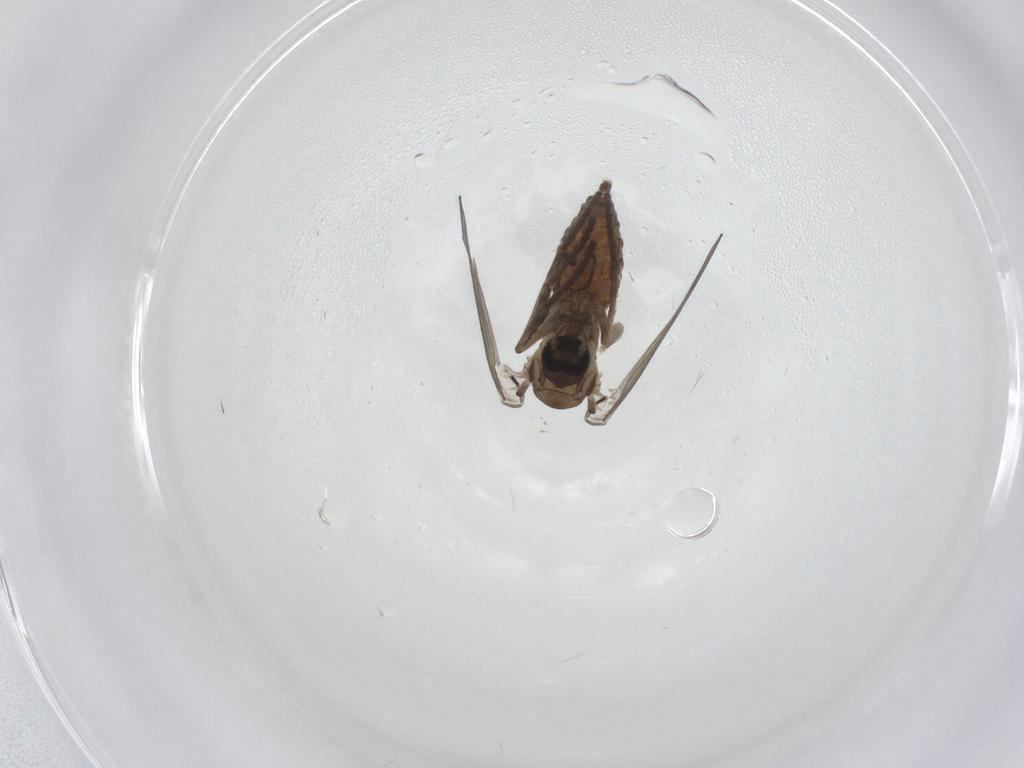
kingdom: Animalia
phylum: Arthropoda
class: Insecta
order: Diptera
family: Psychodidae
